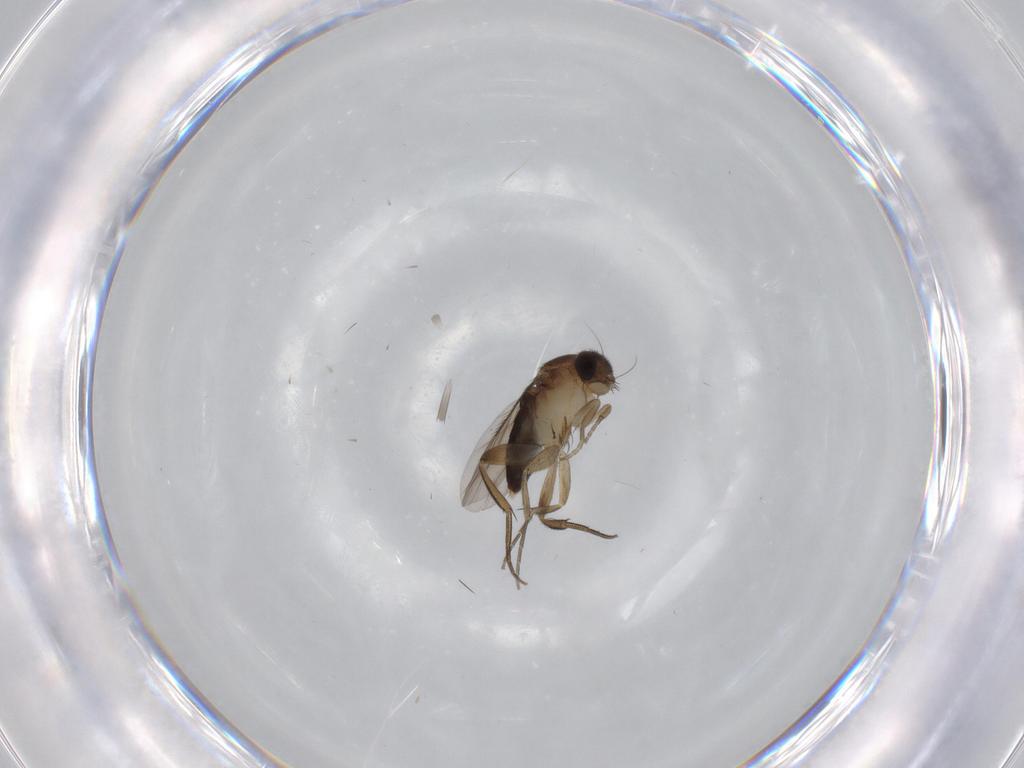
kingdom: Animalia
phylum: Arthropoda
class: Insecta
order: Diptera
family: Phoridae
